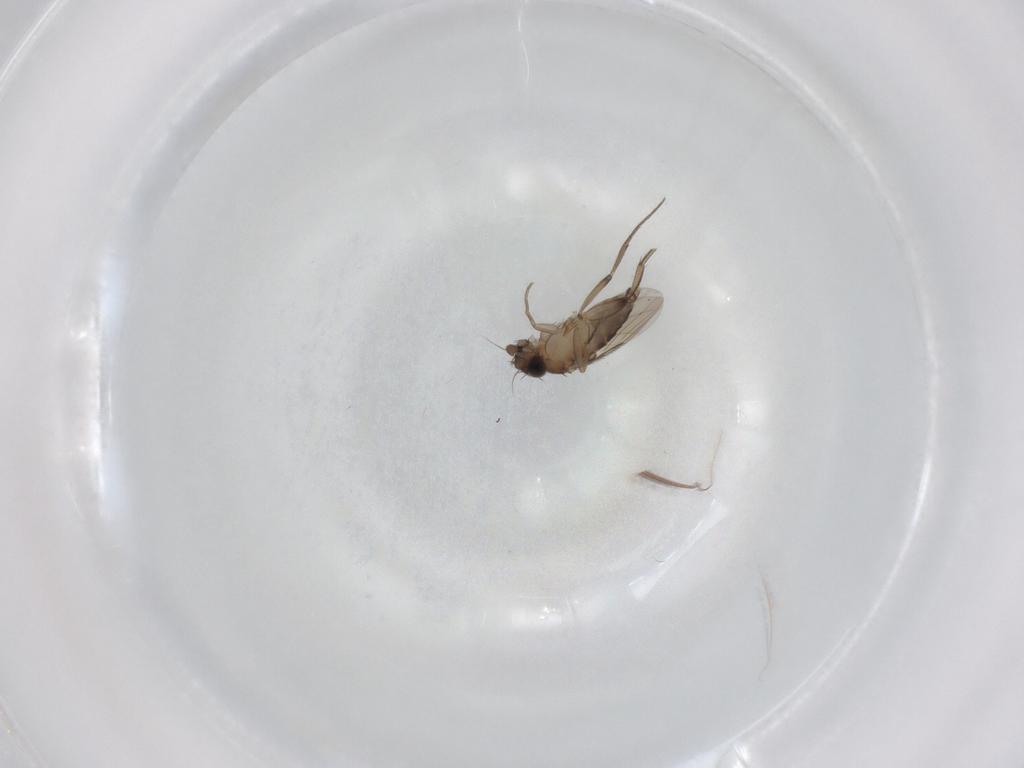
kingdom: Animalia
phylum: Arthropoda
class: Insecta
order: Diptera
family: Phoridae
